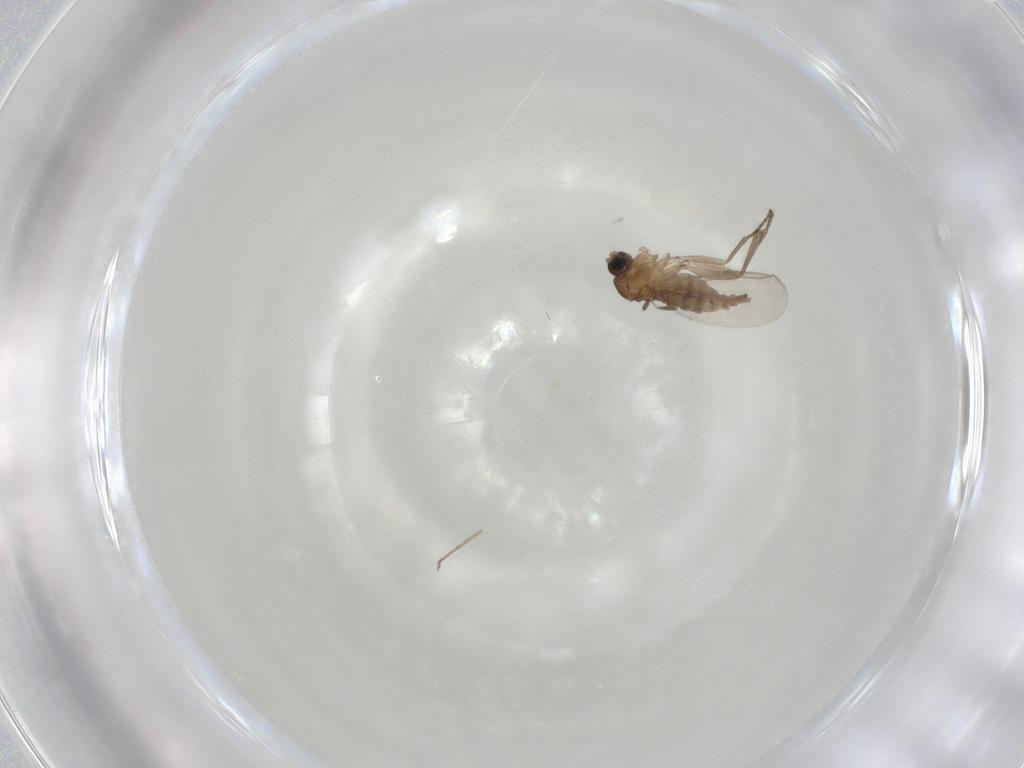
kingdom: Animalia
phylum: Arthropoda
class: Insecta
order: Diptera
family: Sciaridae
